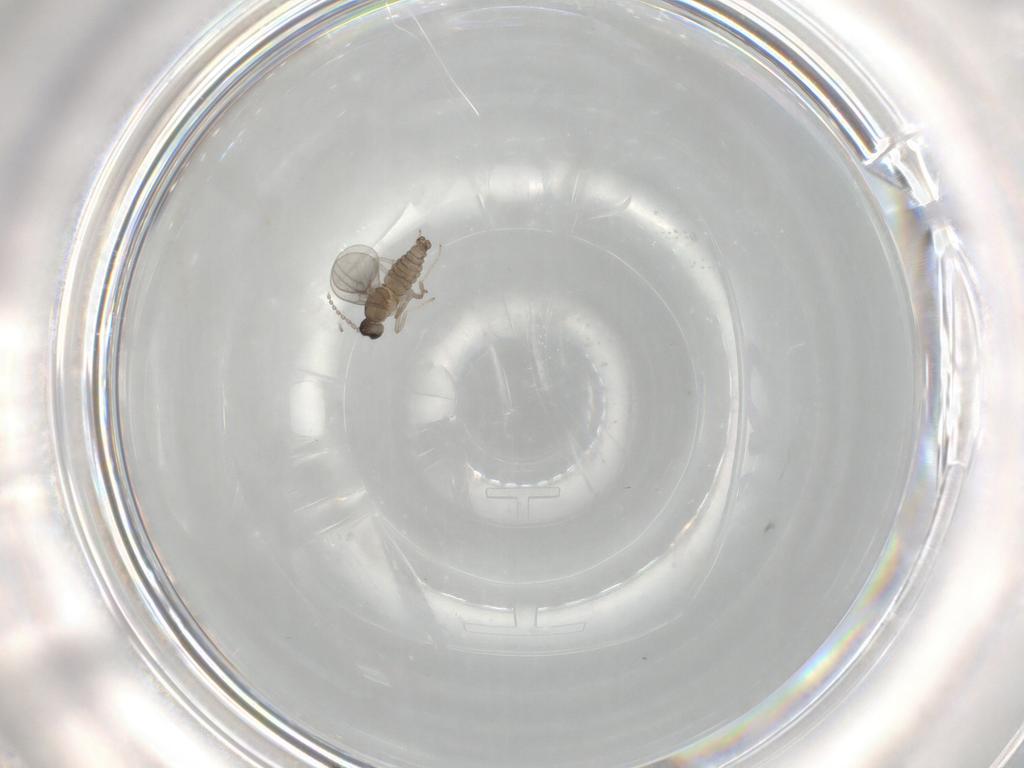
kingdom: Animalia
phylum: Arthropoda
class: Insecta
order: Diptera
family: Cecidomyiidae
